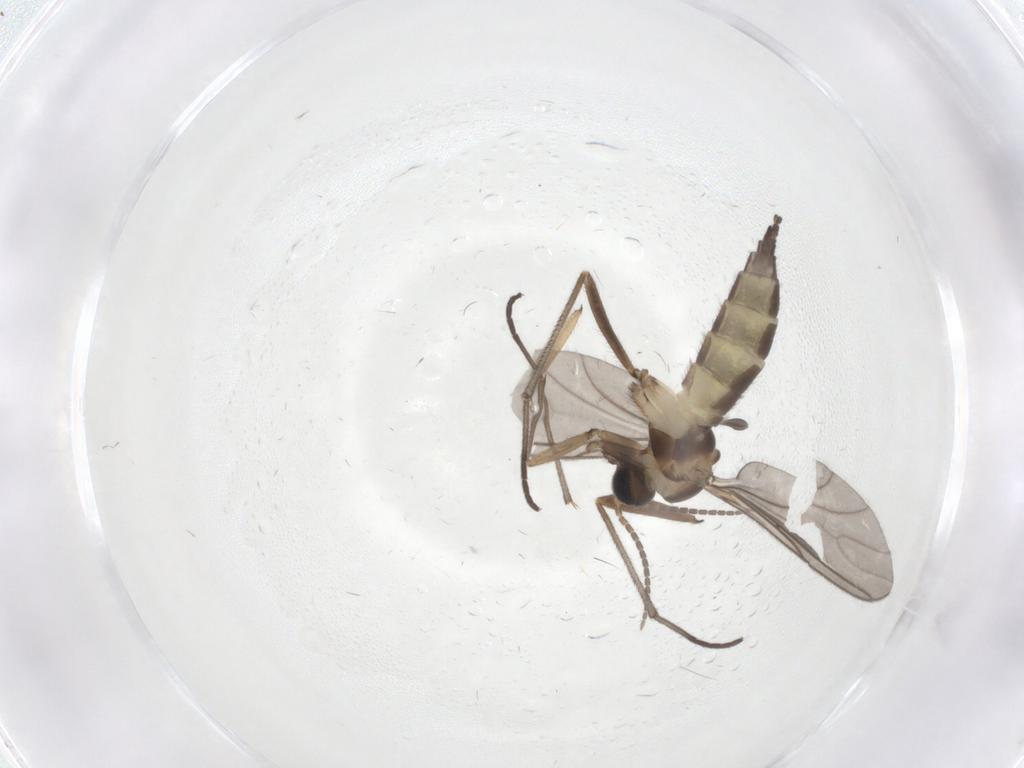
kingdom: Animalia
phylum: Arthropoda
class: Insecta
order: Diptera
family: Sciaridae
